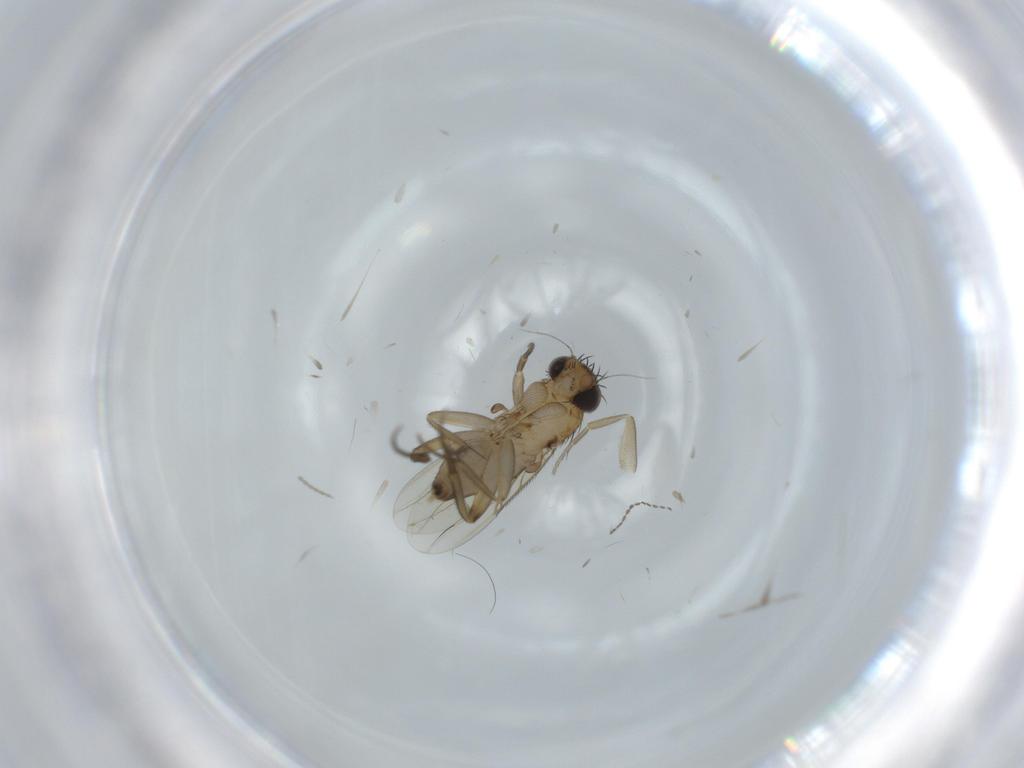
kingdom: Animalia
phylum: Arthropoda
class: Insecta
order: Diptera
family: Phoridae
